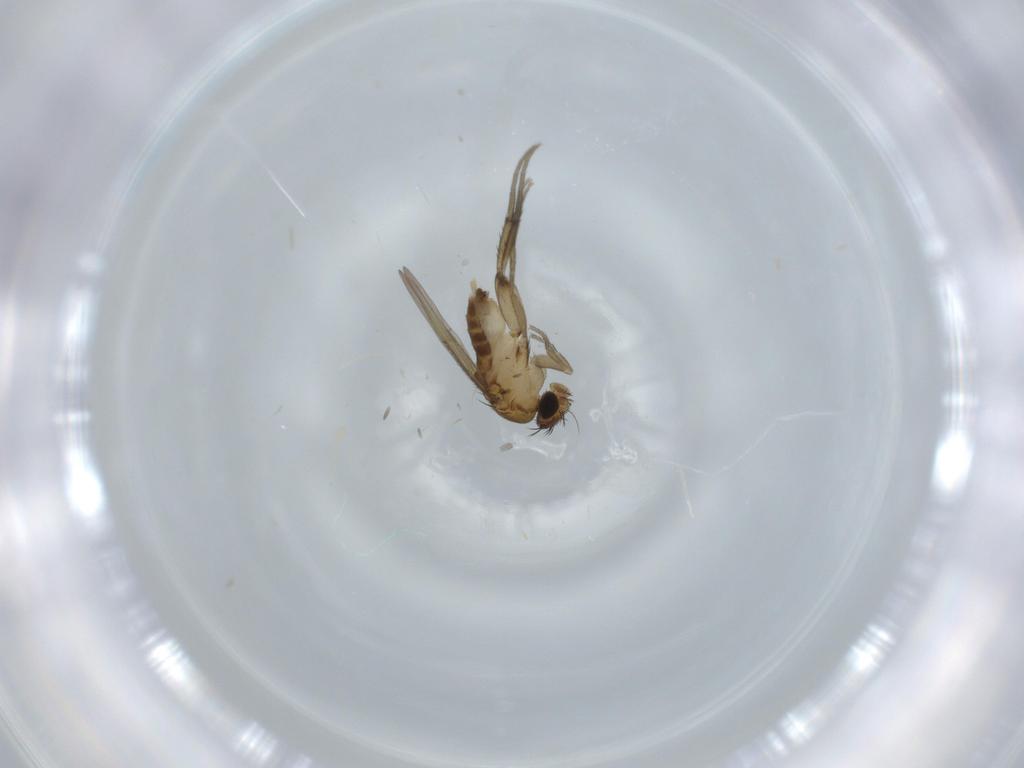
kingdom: Animalia
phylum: Arthropoda
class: Insecta
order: Diptera
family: Phoridae
